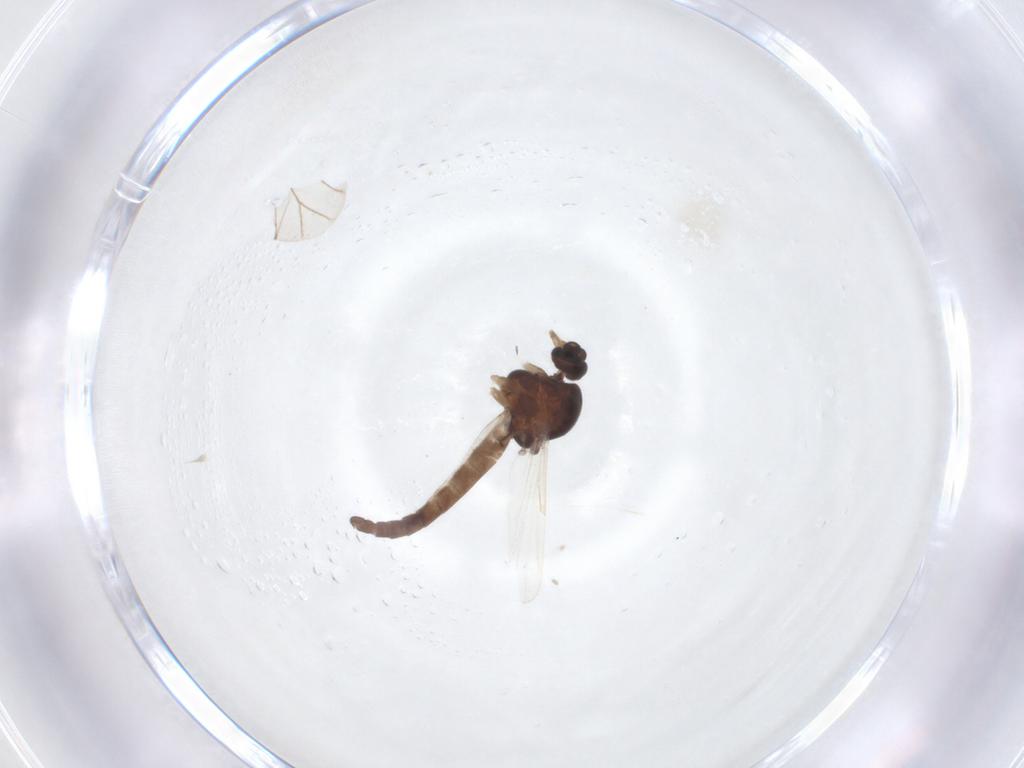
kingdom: Animalia
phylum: Arthropoda
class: Insecta
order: Diptera
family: Ceratopogonidae
